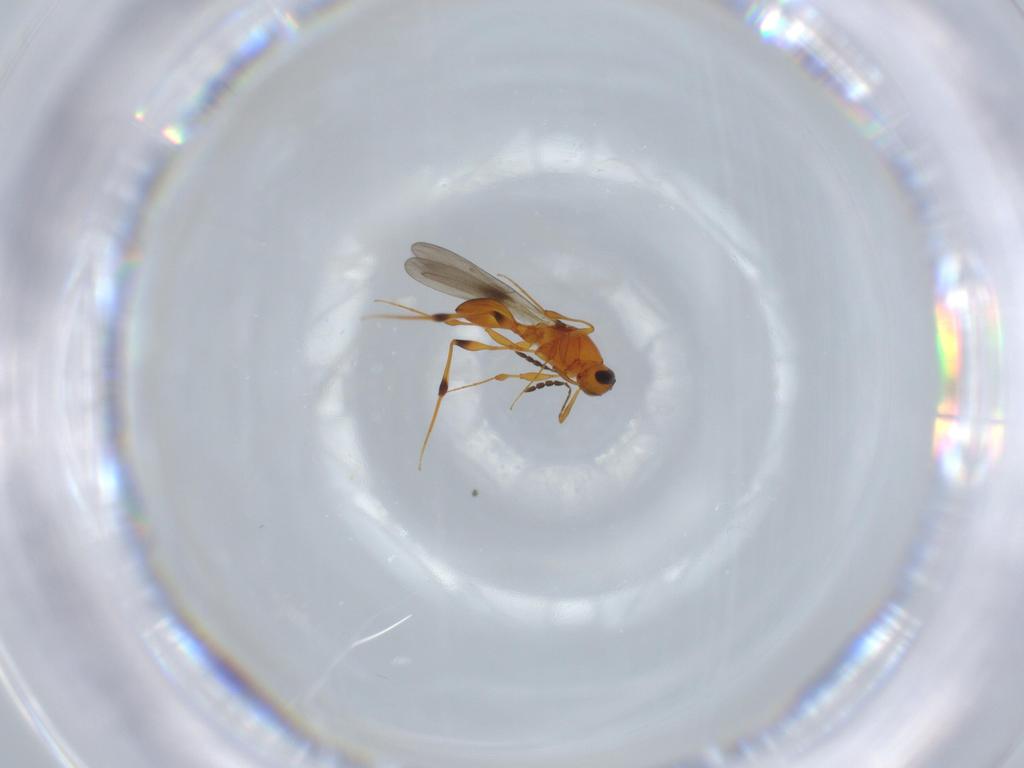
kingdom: Animalia
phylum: Arthropoda
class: Insecta
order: Hymenoptera
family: Platygastridae
